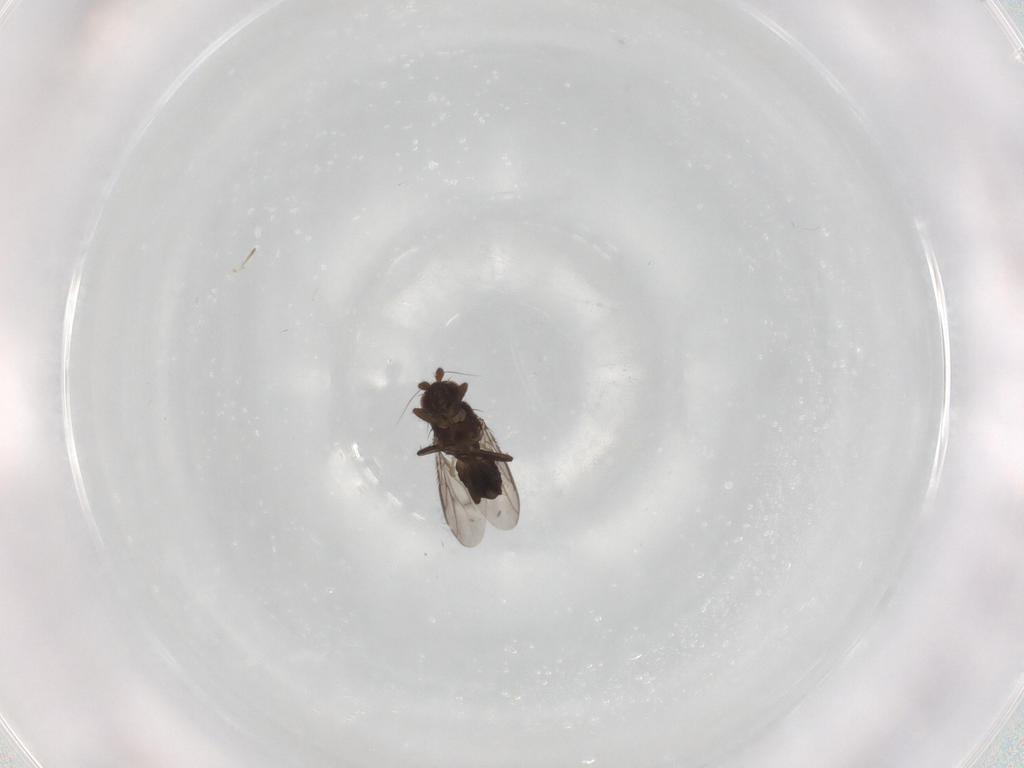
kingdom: Animalia
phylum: Arthropoda
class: Insecta
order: Diptera
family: Sphaeroceridae
